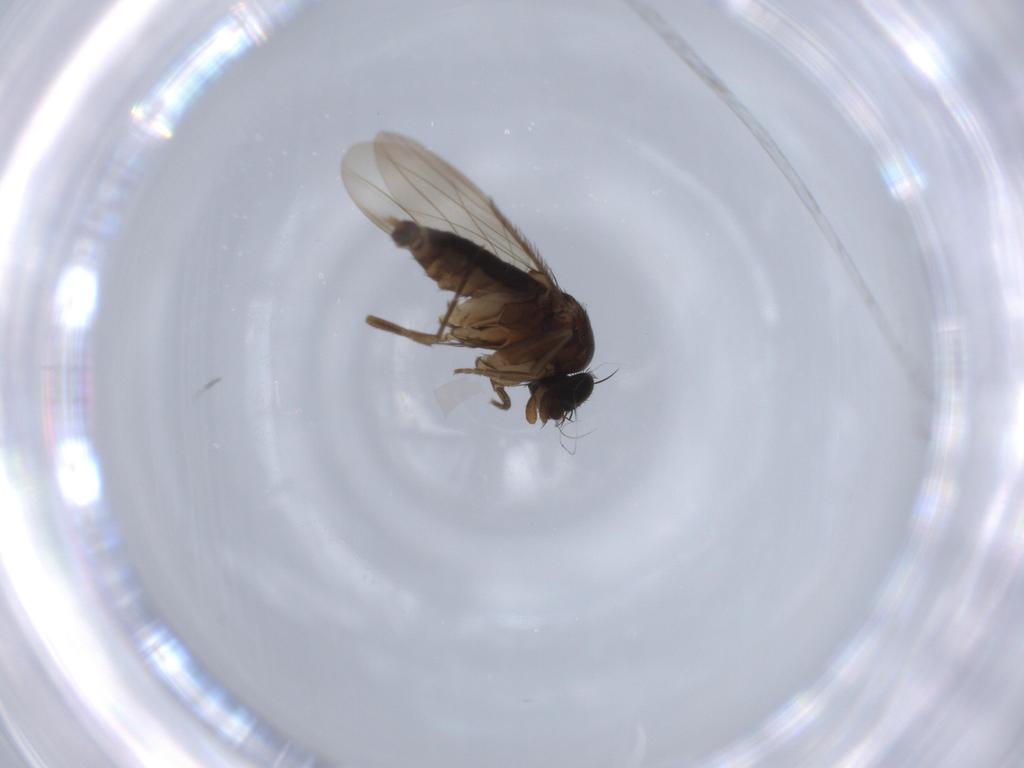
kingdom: Animalia
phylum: Arthropoda
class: Insecta
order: Diptera
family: Phoridae
